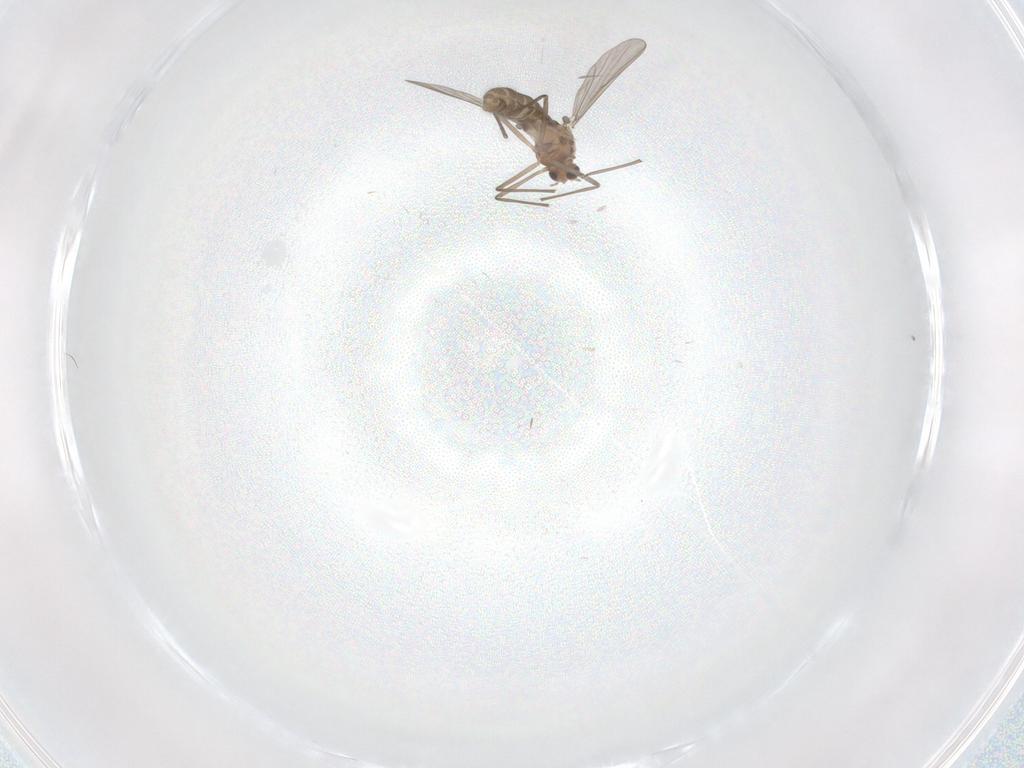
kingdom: Animalia
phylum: Arthropoda
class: Insecta
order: Diptera
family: Chironomidae
